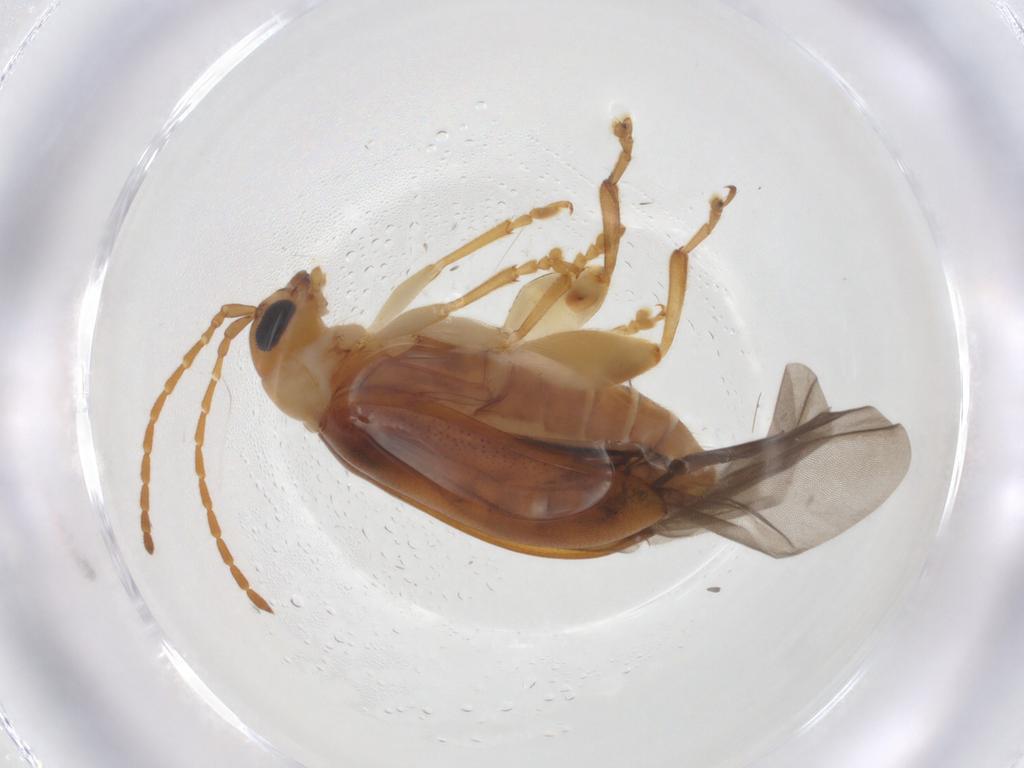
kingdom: Animalia
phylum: Arthropoda
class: Insecta
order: Coleoptera
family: Chrysomelidae
